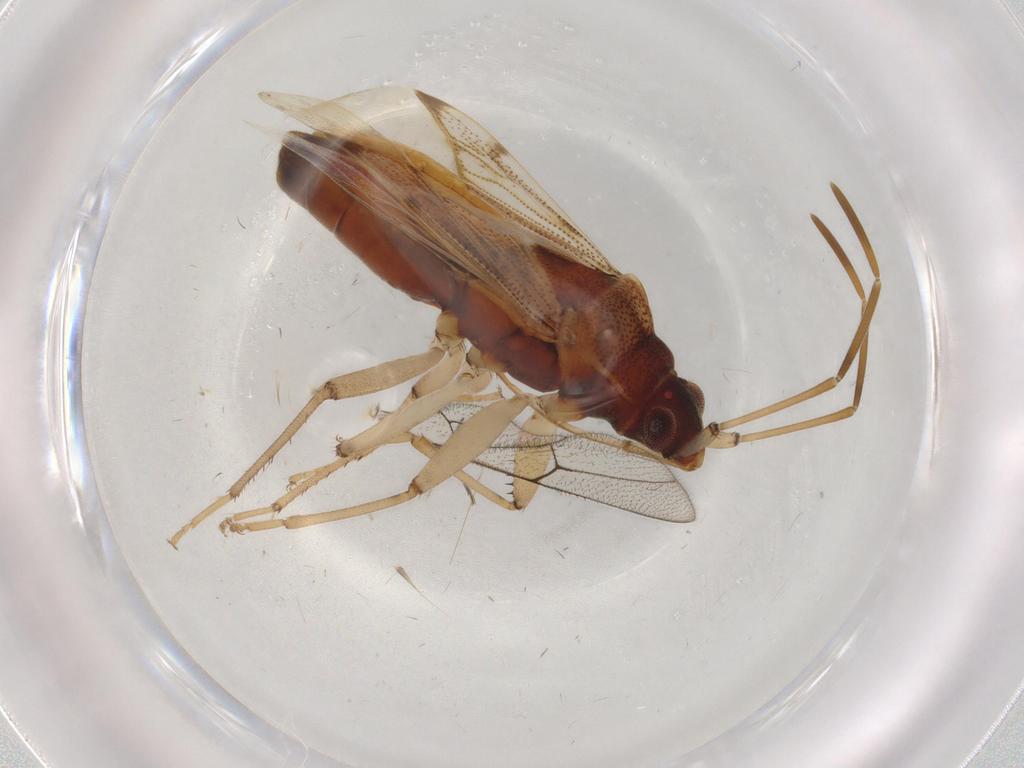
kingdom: Animalia
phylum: Arthropoda
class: Insecta
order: Hemiptera
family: Rhyparochromidae
